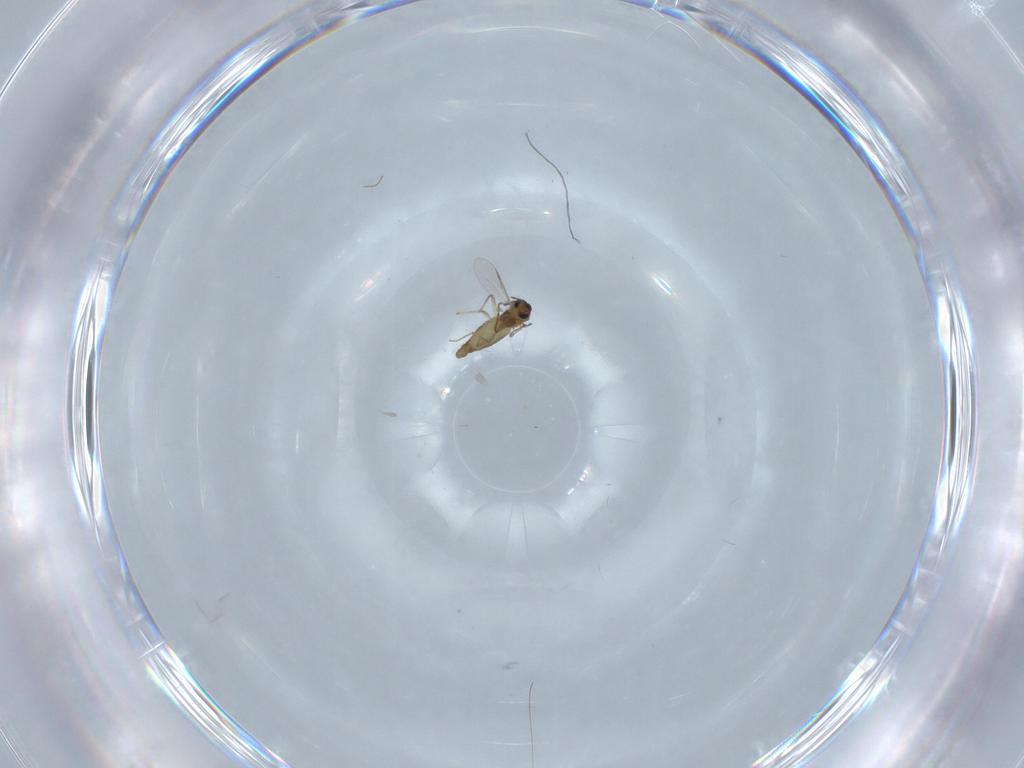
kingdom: Animalia
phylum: Arthropoda
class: Insecta
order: Diptera
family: Chironomidae
